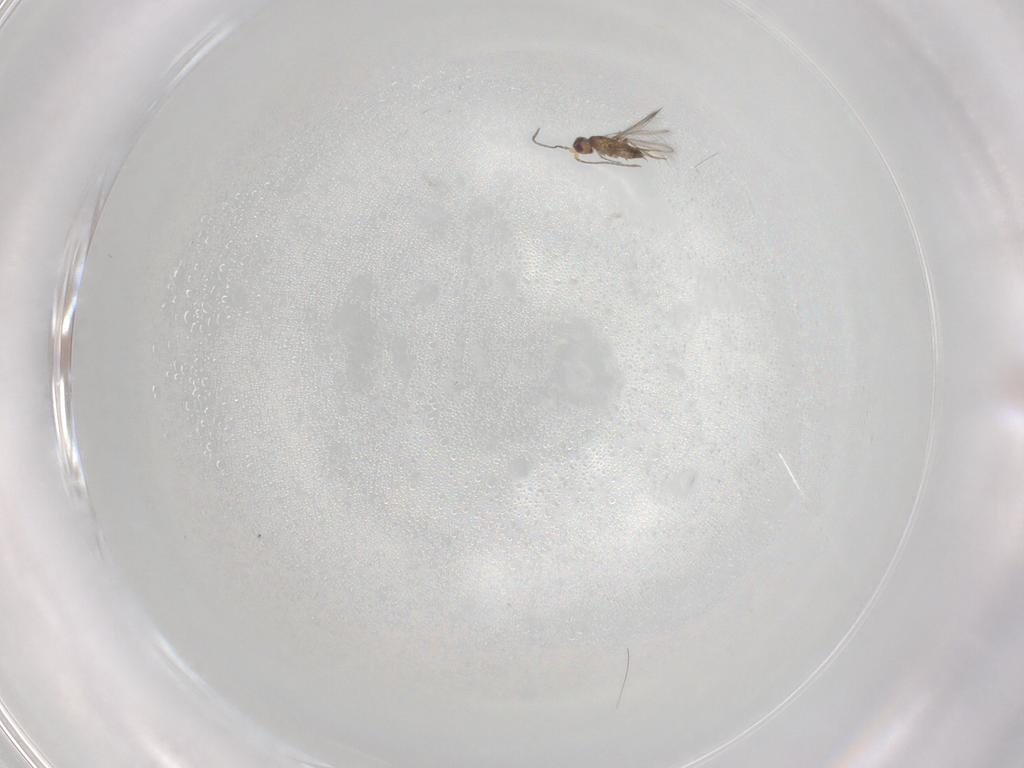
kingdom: Animalia
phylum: Arthropoda
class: Insecta
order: Hymenoptera
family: Mymaridae
